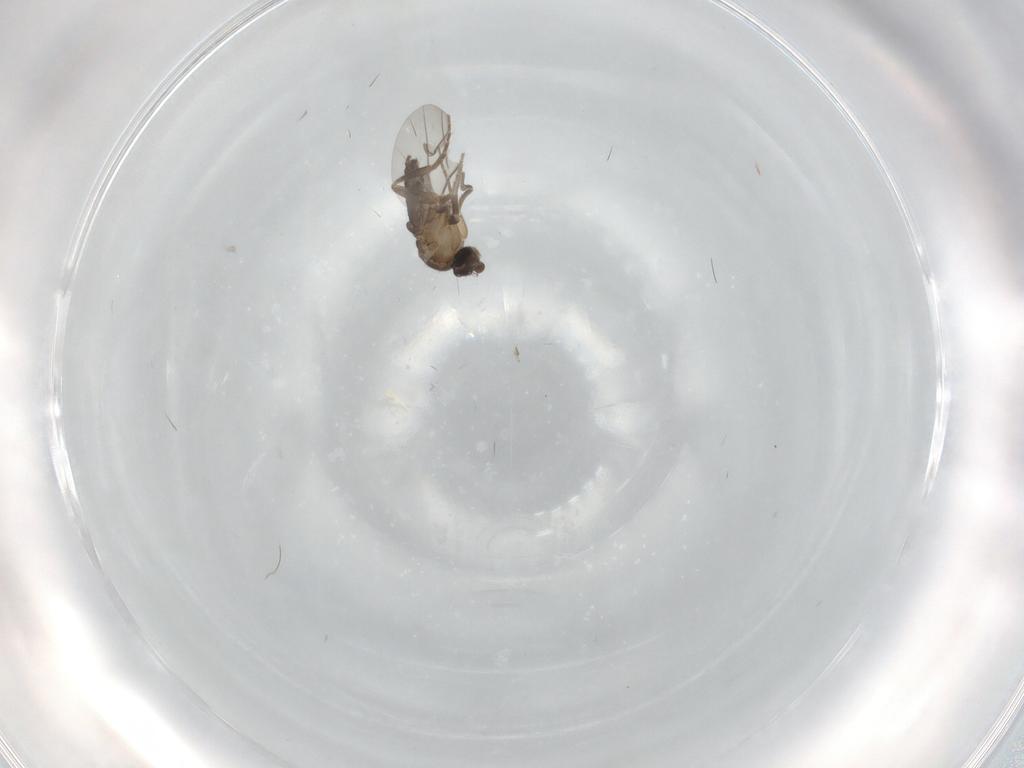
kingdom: Animalia
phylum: Arthropoda
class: Insecta
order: Diptera
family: Phoridae
